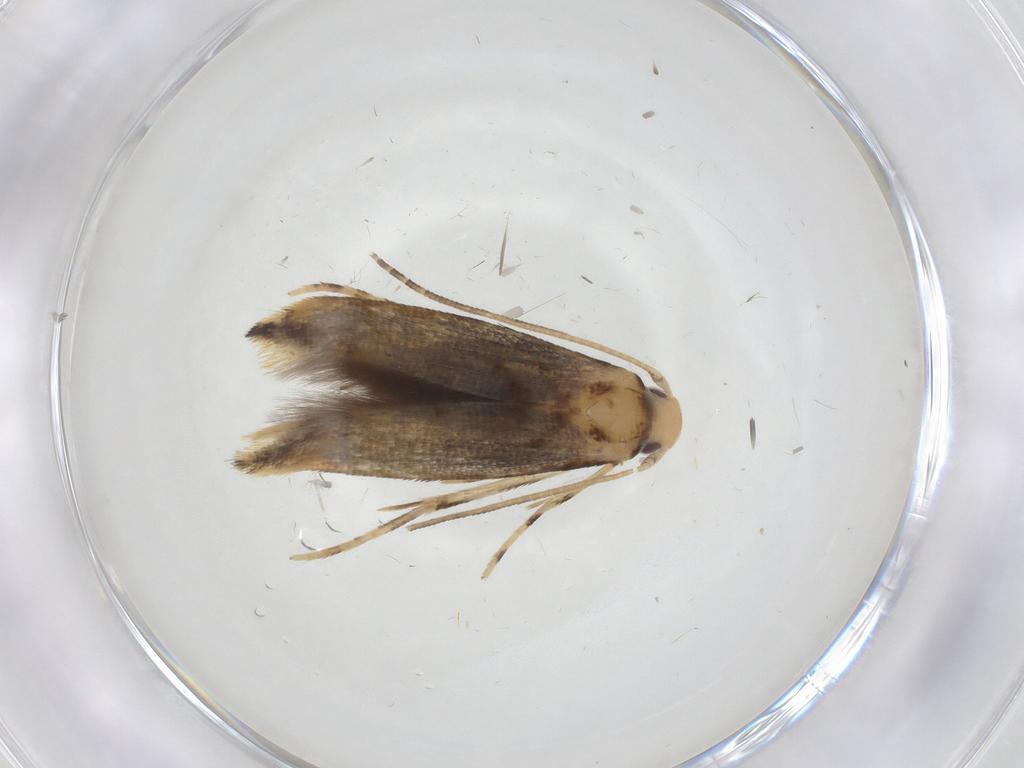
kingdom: Animalia
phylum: Arthropoda
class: Insecta
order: Lepidoptera
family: Momphidae
